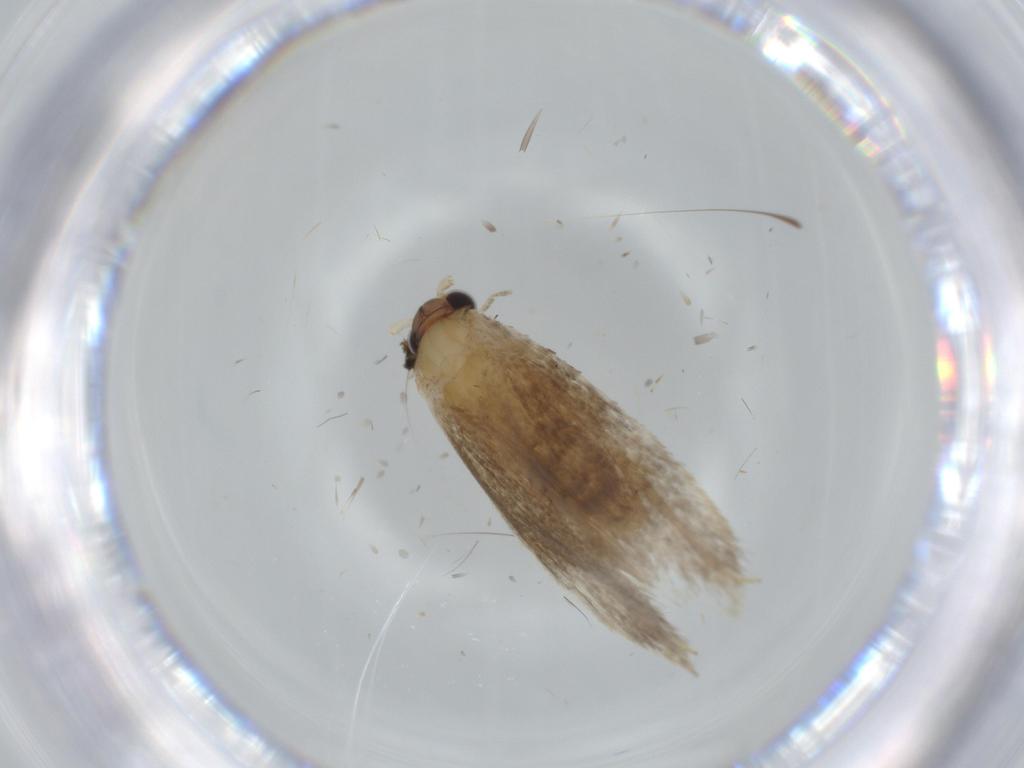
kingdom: Animalia
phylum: Arthropoda
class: Insecta
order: Lepidoptera
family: Tineidae
